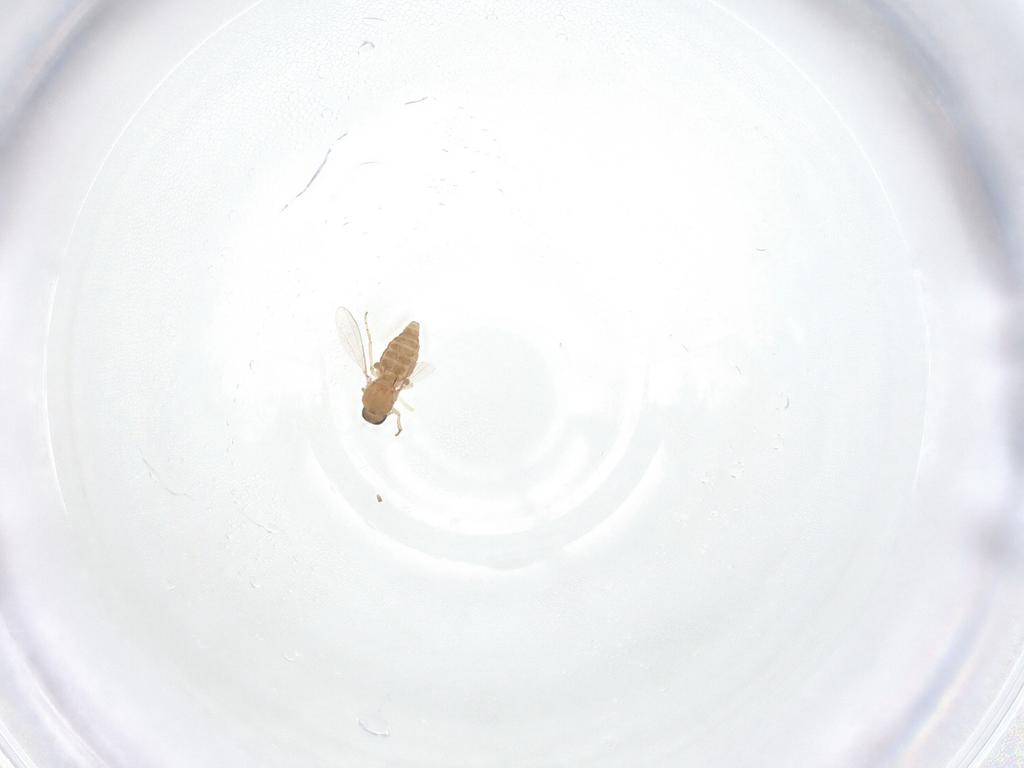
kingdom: Animalia
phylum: Arthropoda
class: Insecta
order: Diptera
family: Ceratopogonidae
